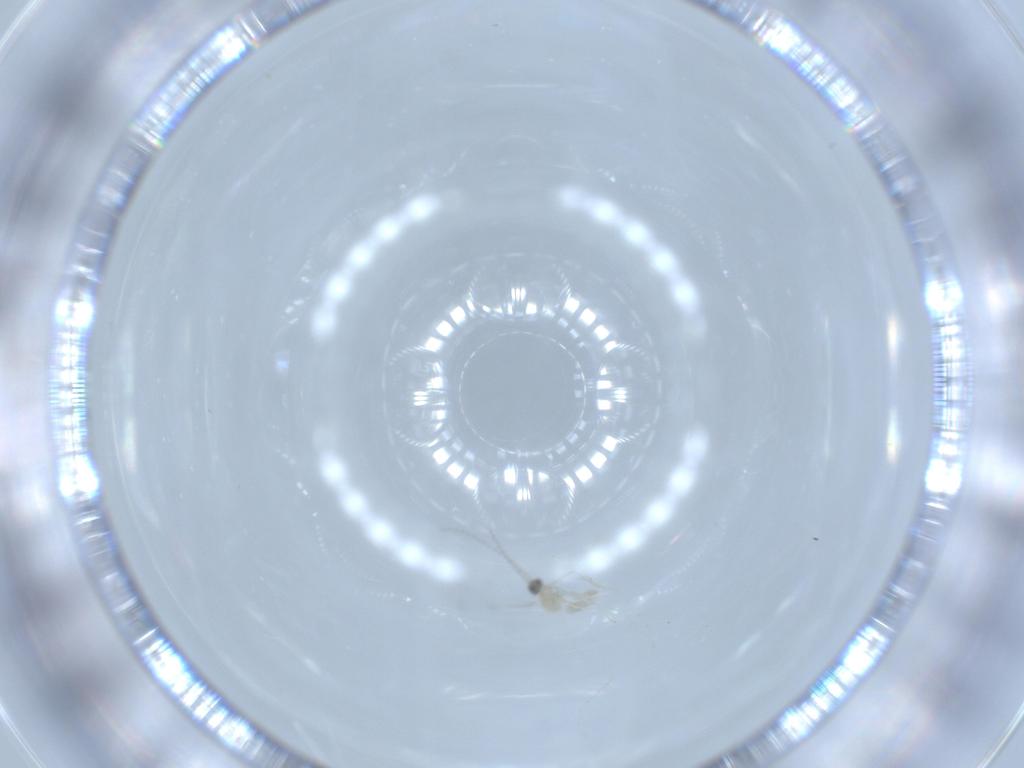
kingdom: Animalia
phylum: Arthropoda
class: Insecta
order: Diptera
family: Cecidomyiidae
